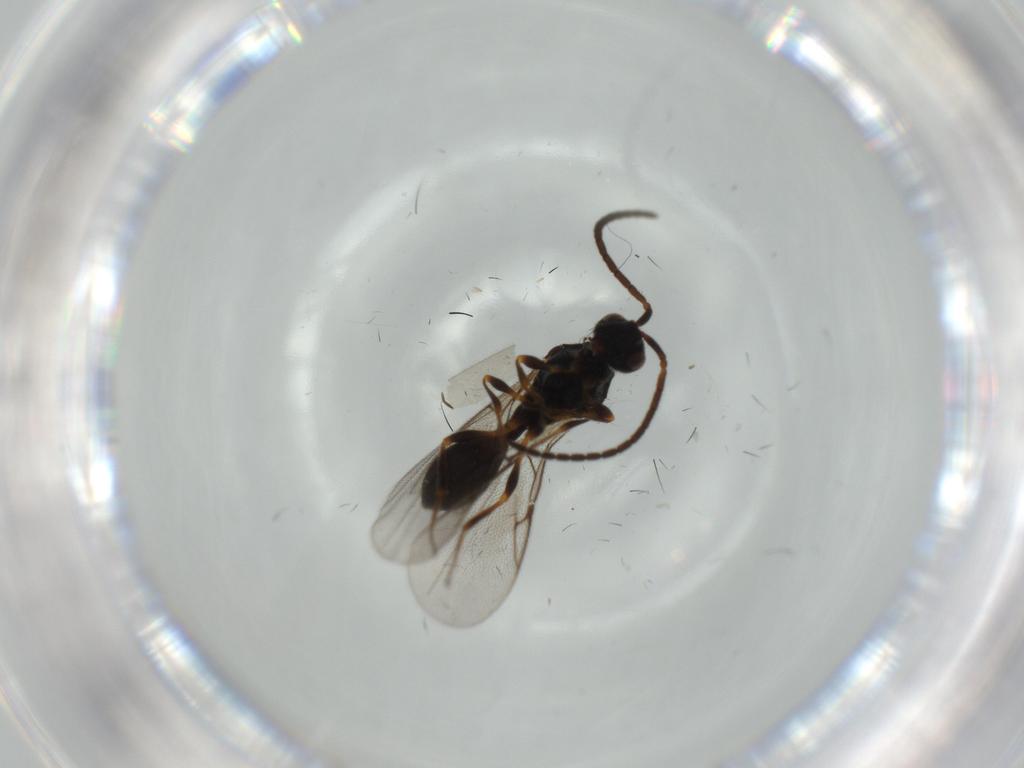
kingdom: Animalia
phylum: Arthropoda
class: Insecta
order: Hymenoptera
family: Ichneumonidae
